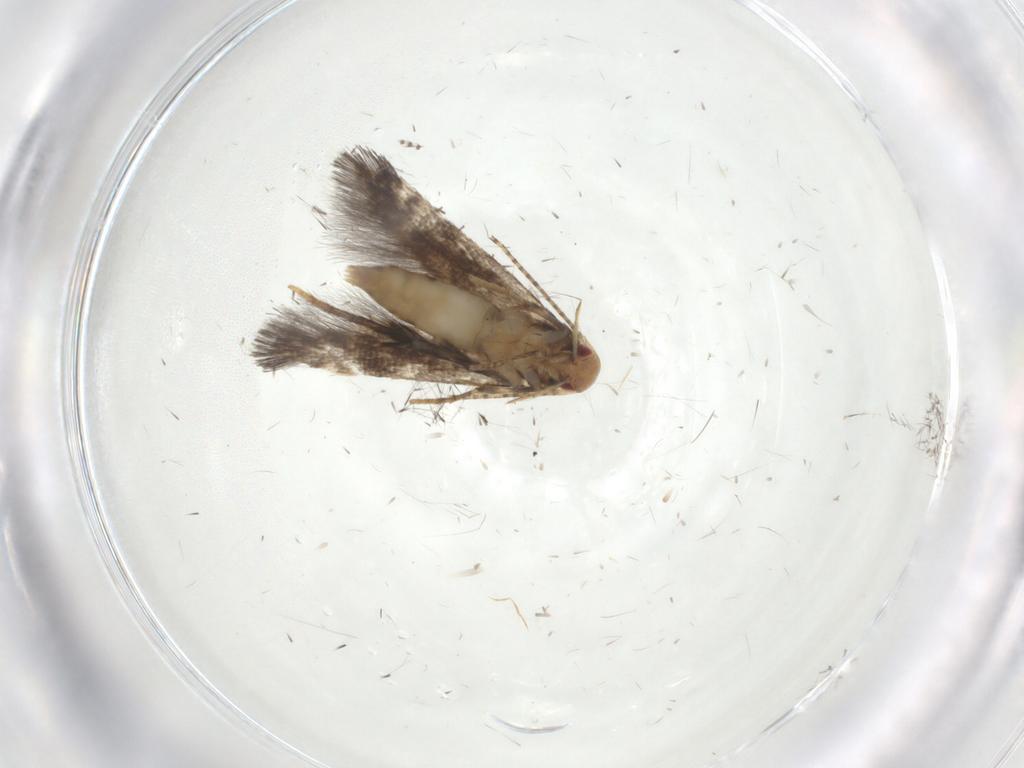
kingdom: Animalia
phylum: Arthropoda
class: Insecta
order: Lepidoptera
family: Momphidae
